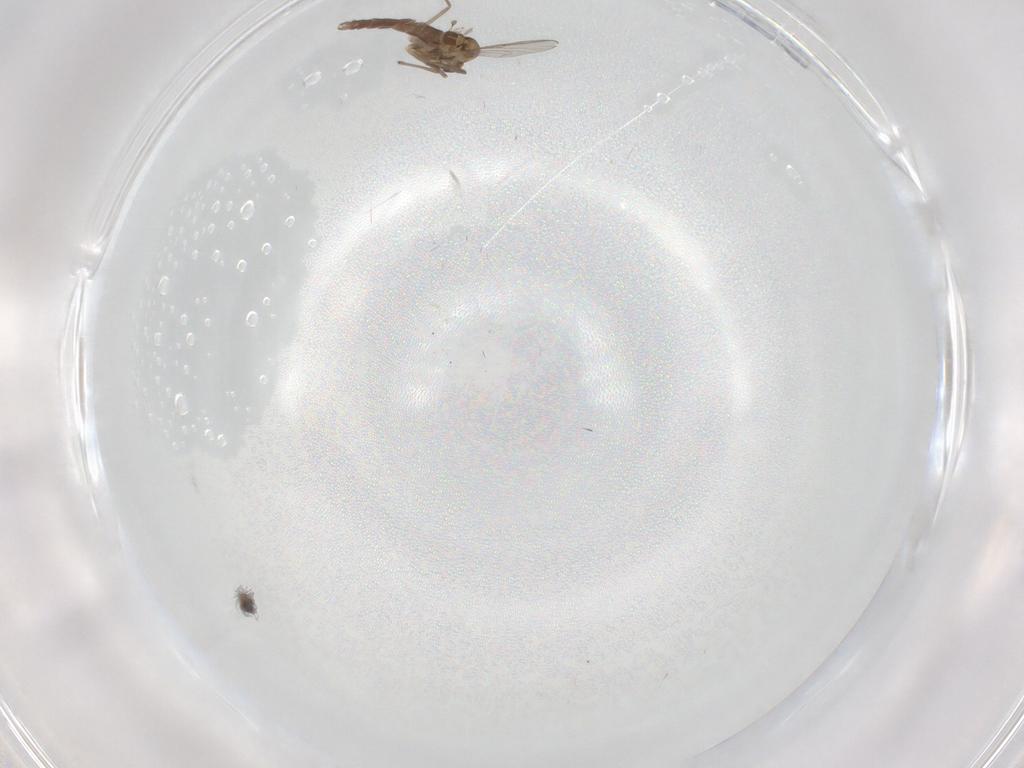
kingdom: Animalia
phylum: Arthropoda
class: Insecta
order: Diptera
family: Chironomidae
